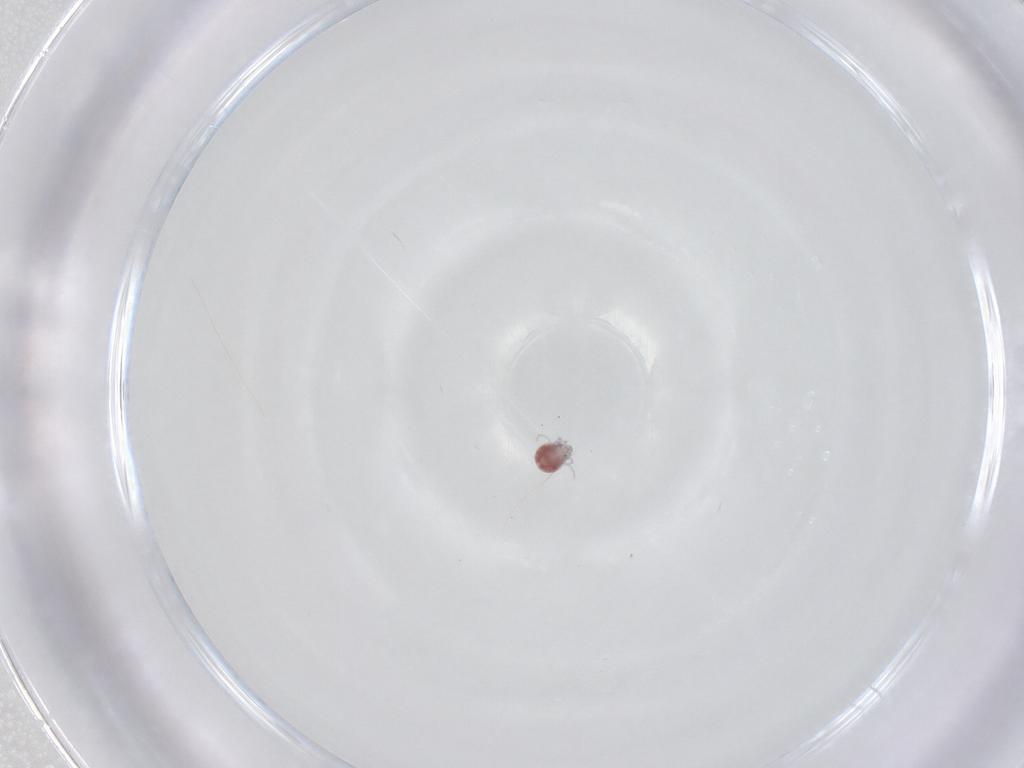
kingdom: Animalia
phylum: Arthropoda
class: Arachnida
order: Trombidiformes
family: Pionidae
